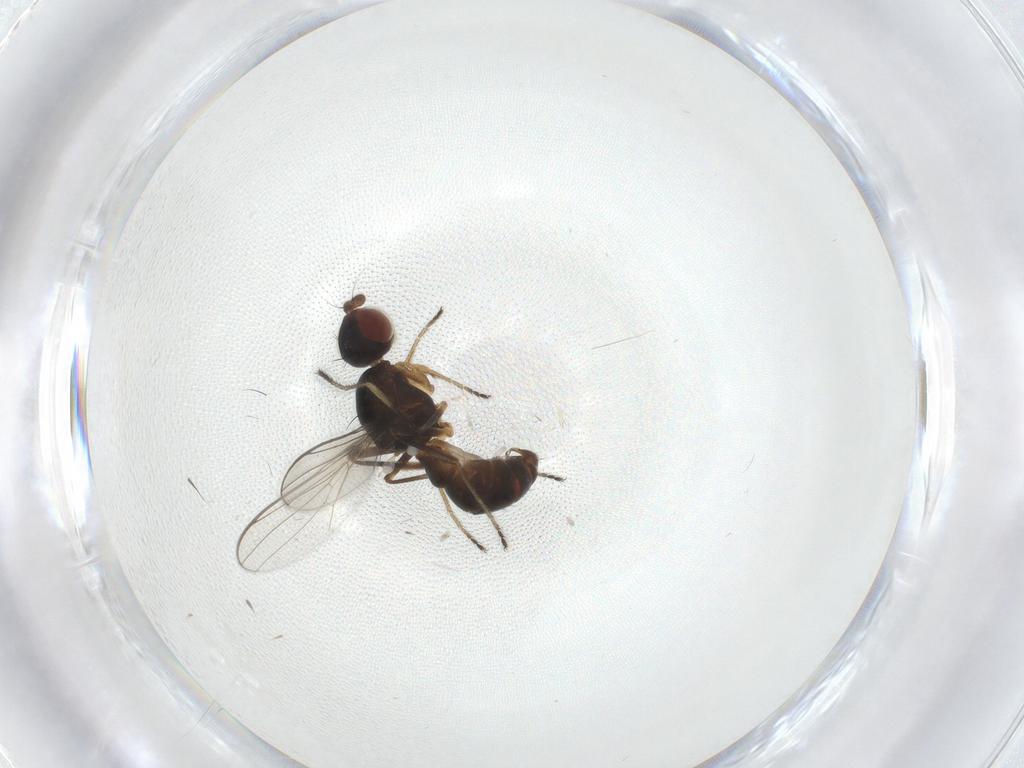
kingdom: Animalia
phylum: Arthropoda
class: Insecta
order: Diptera
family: Sepsidae
